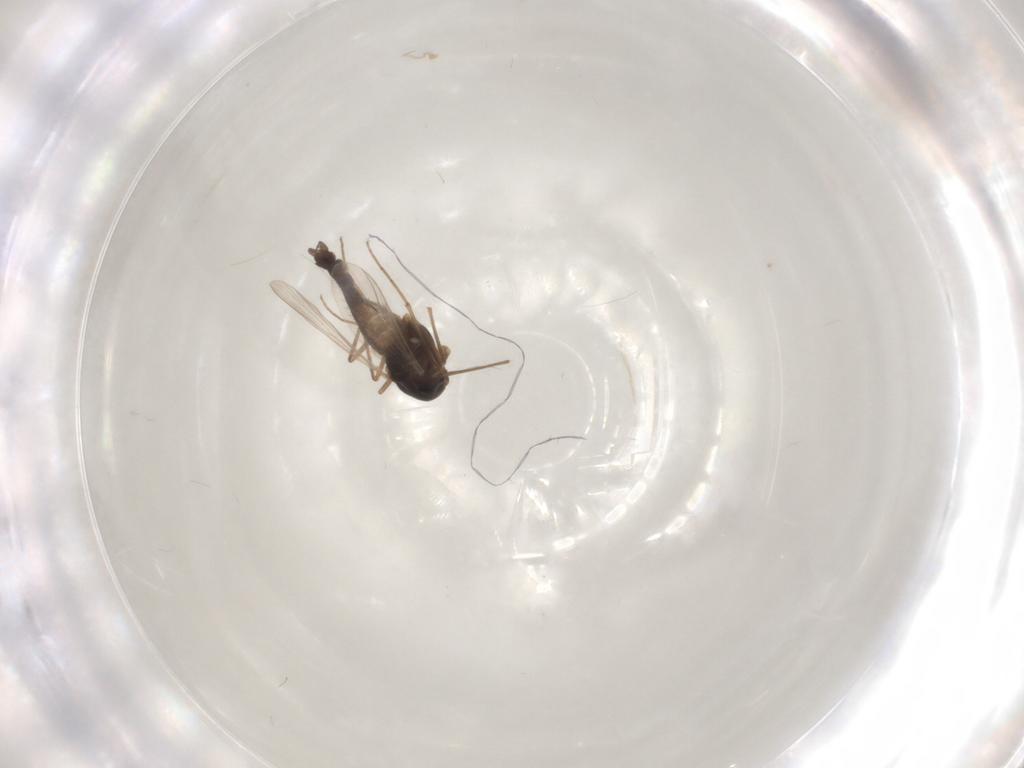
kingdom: Animalia
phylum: Arthropoda
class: Insecta
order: Diptera
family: Chironomidae
